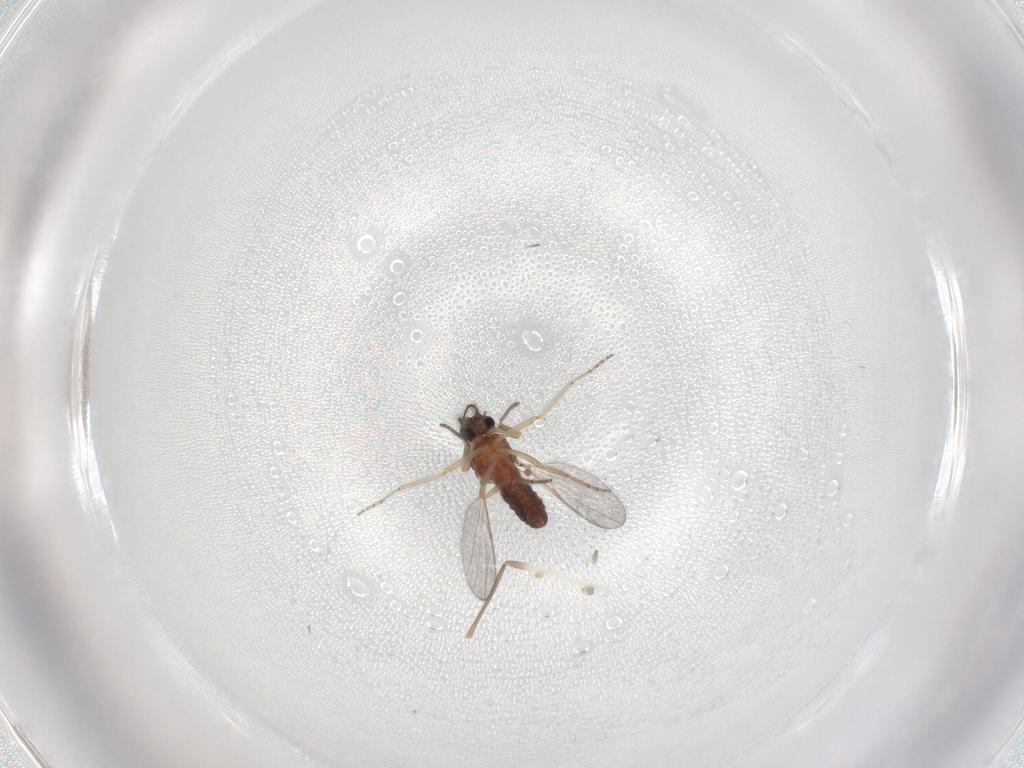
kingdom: Animalia
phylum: Arthropoda
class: Insecta
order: Diptera
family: Ceratopogonidae
